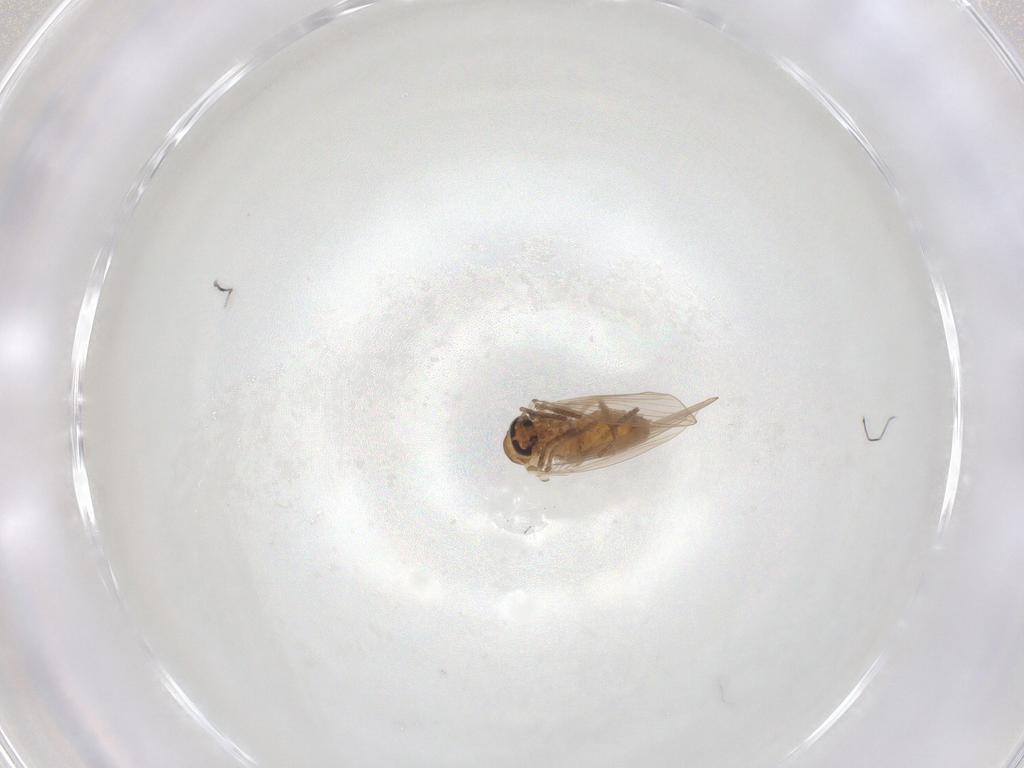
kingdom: Animalia
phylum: Arthropoda
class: Insecta
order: Diptera
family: Psychodidae
